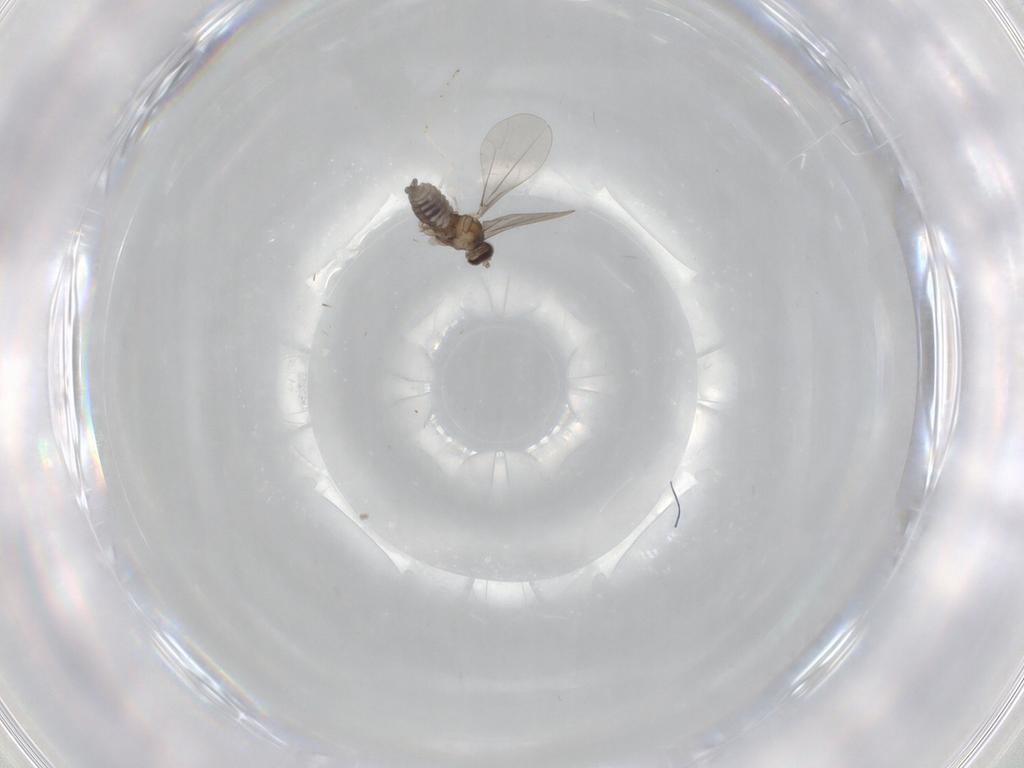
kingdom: Animalia
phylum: Arthropoda
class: Insecta
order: Diptera
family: Cecidomyiidae
